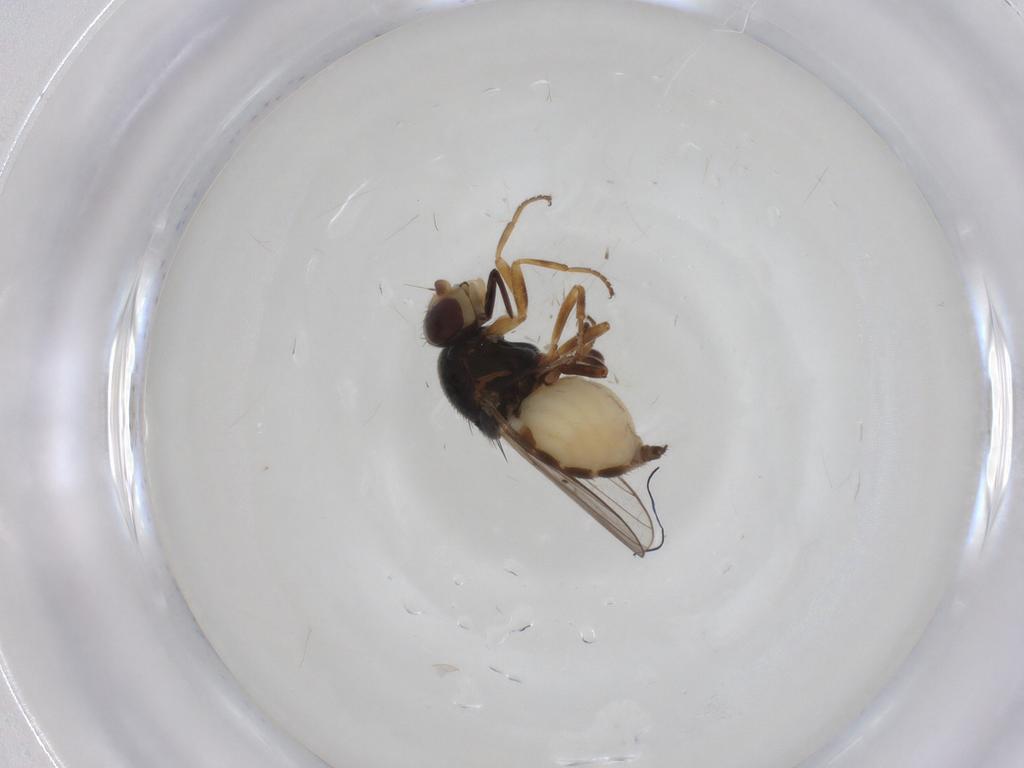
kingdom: Animalia
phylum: Arthropoda
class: Insecta
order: Diptera
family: Chloropidae
